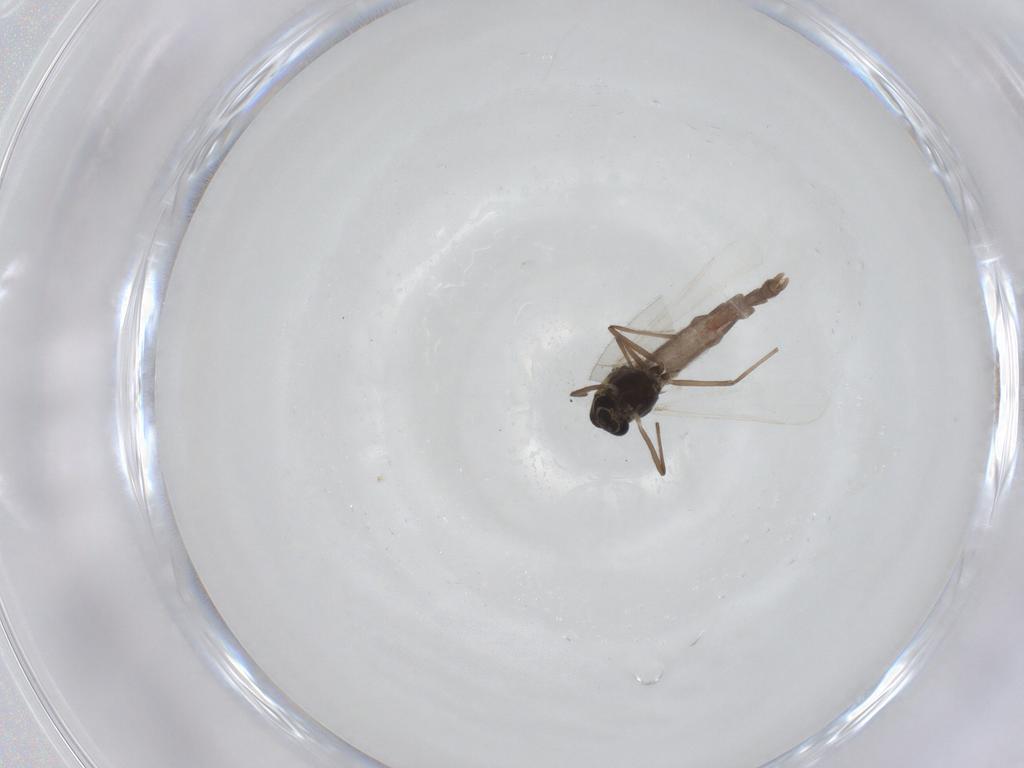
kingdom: Animalia
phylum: Arthropoda
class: Insecta
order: Diptera
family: Chironomidae
